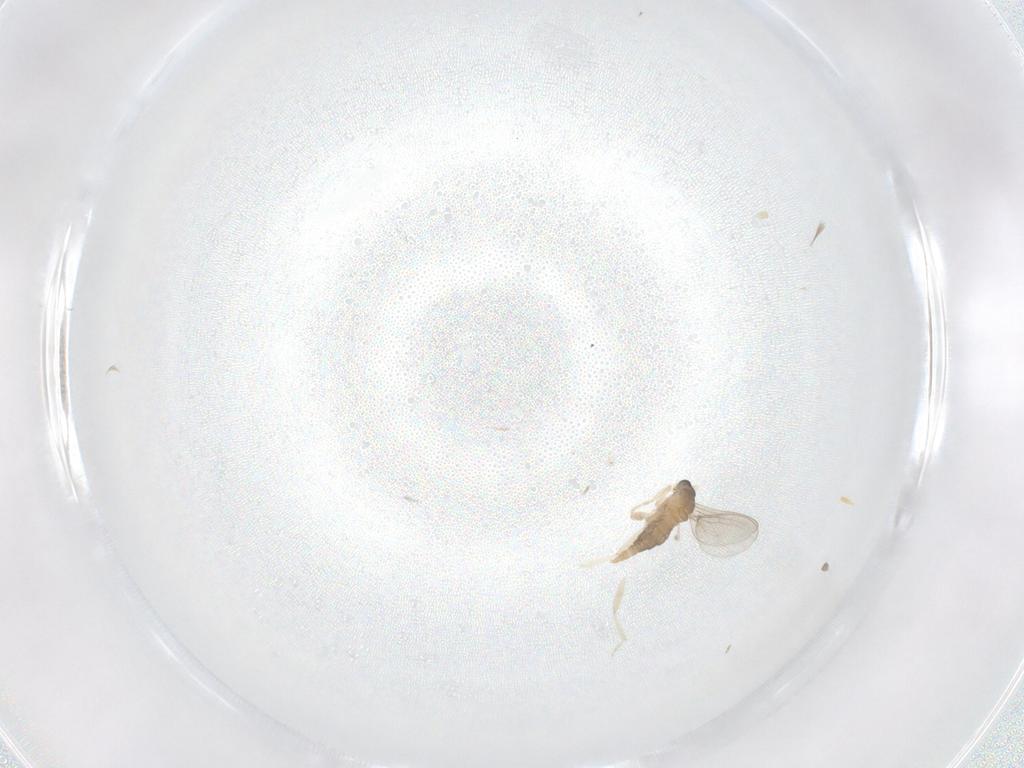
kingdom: Animalia
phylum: Arthropoda
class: Insecta
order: Diptera
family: Cecidomyiidae
